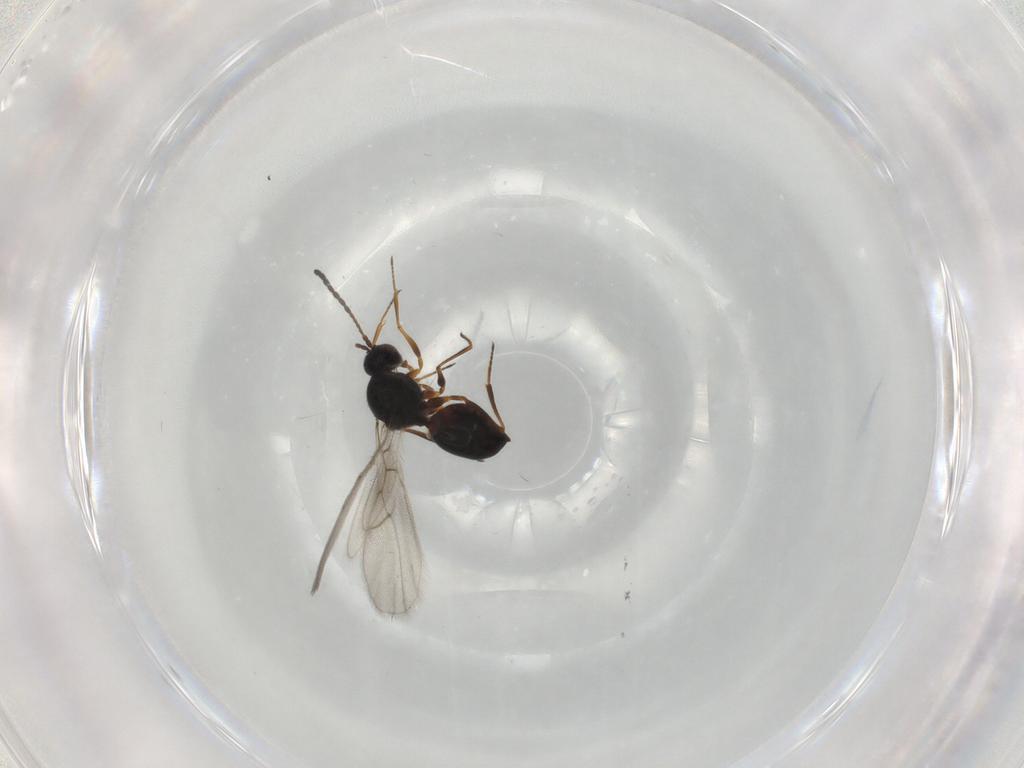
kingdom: Animalia
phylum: Arthropoda
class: Insecta
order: Hymenoptera
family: Figitidae
